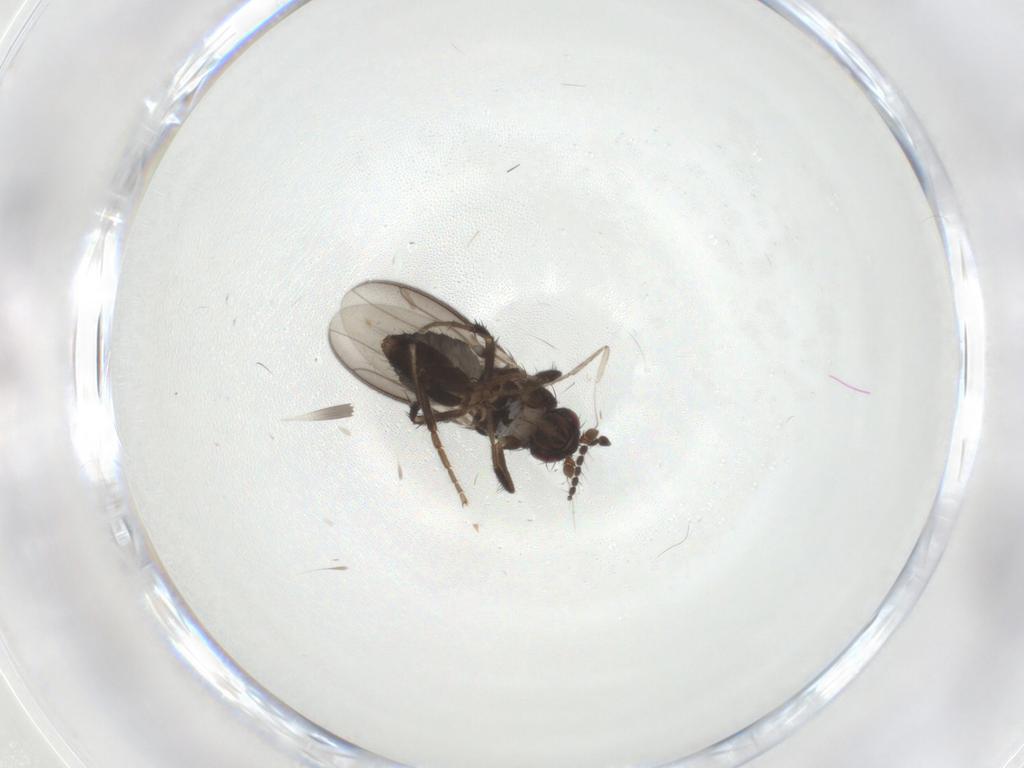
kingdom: Animalia
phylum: Arthropoda
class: Insecta
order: Diptera
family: Sphaeroceridae
